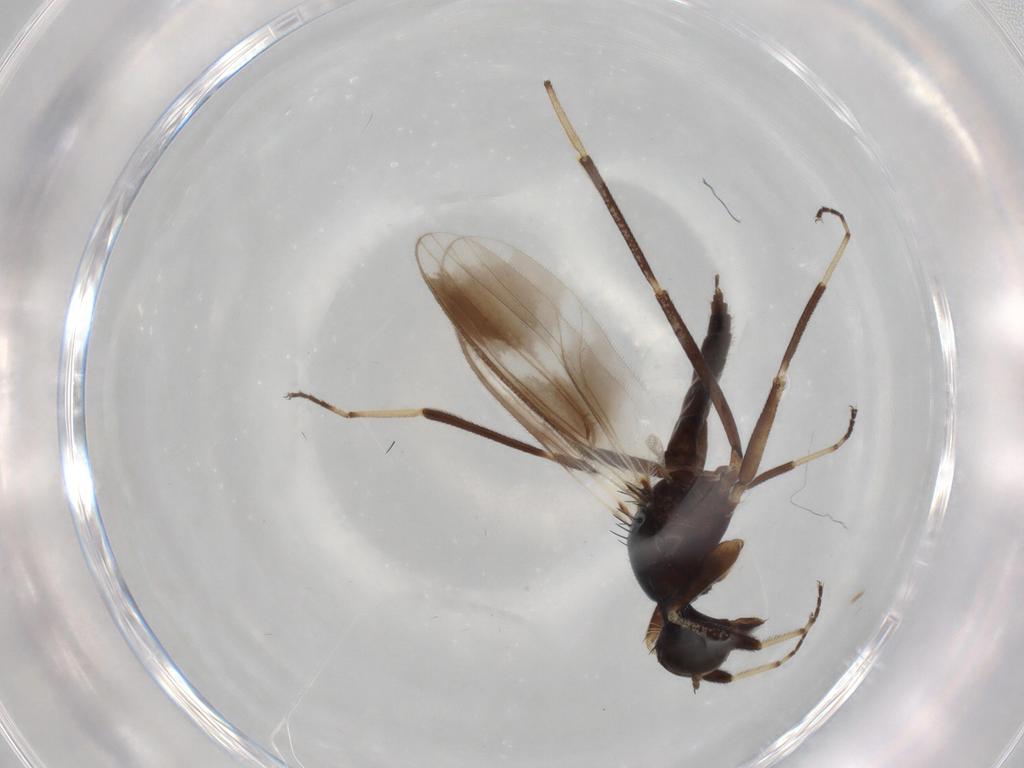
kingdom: Animalia
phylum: Arthropoda
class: Insecta
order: Diptera
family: Hybotidae
